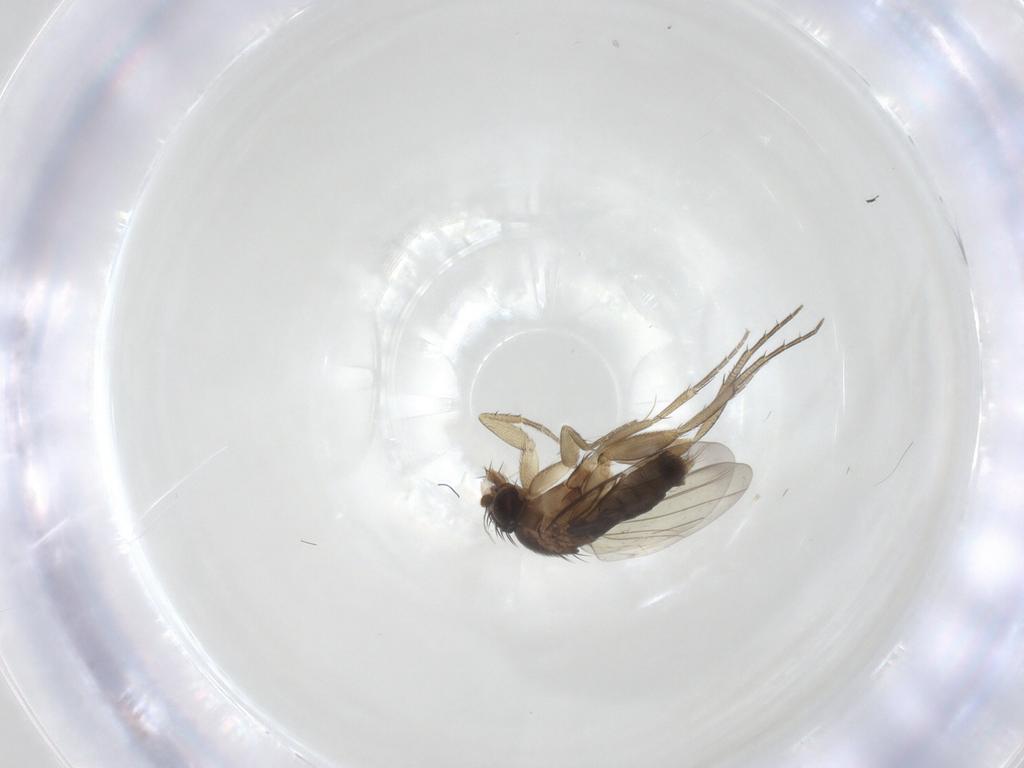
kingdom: Animalia
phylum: Arthropoda
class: Insecta
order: Diptera
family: Phoridae
